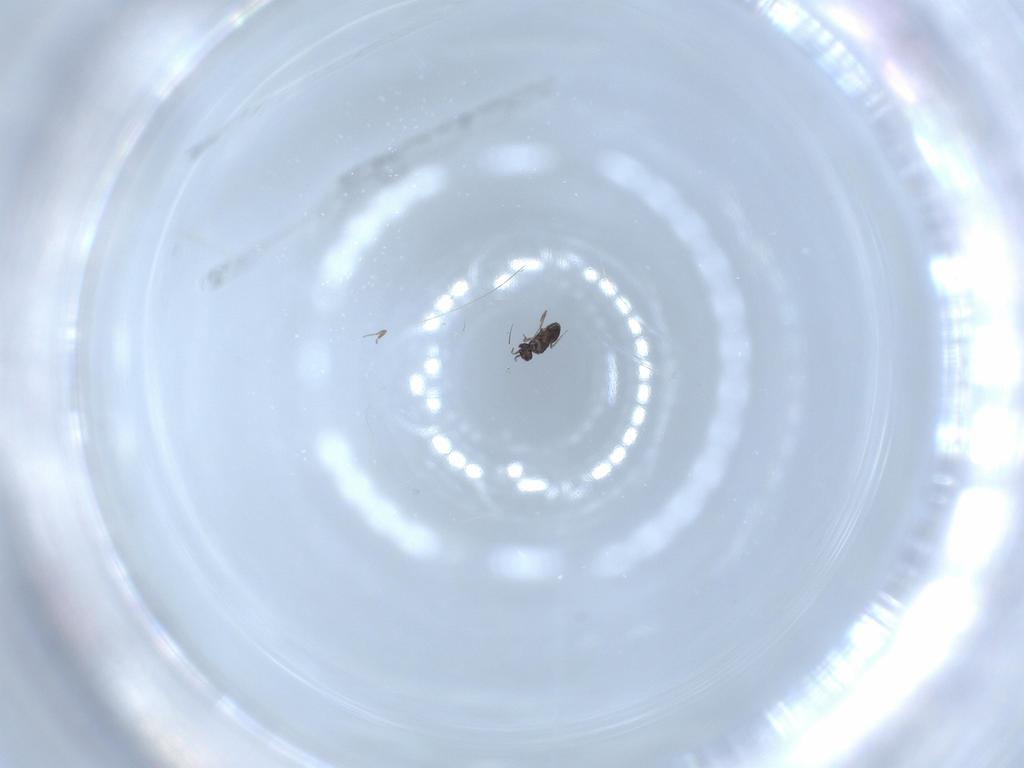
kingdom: Animalia
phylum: Arthropoda
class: Insecta
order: Hymenoptera
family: Mymaridae
